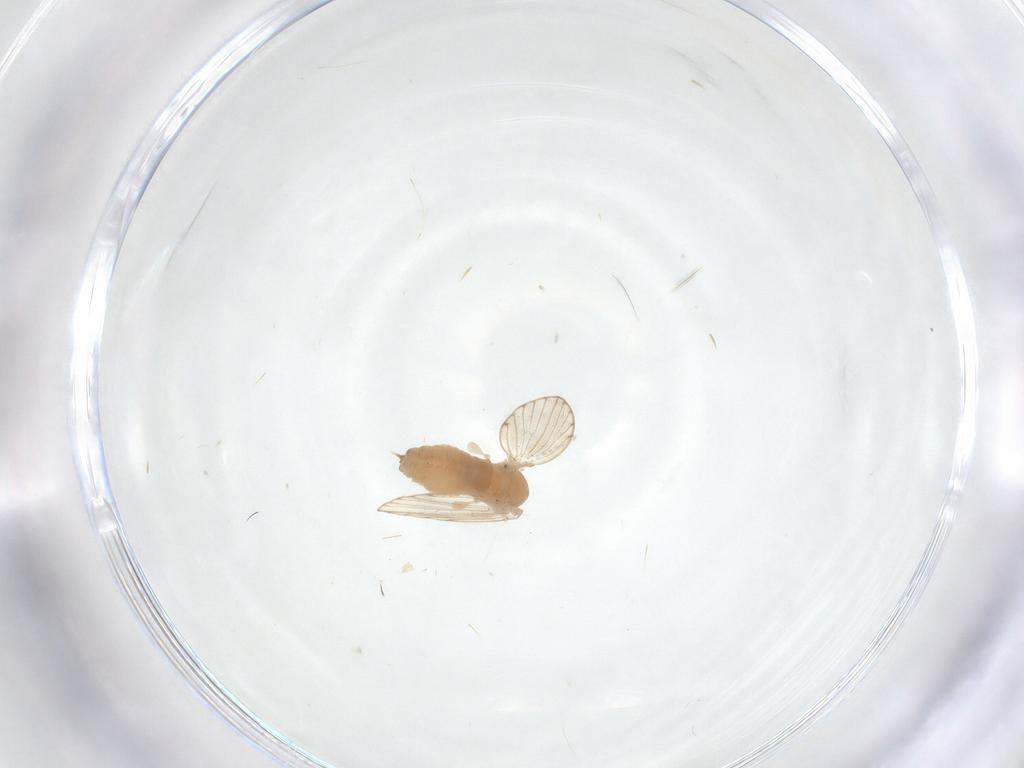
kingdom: Animalia
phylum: Arthropoda
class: Insecta
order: Diptera
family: Psychodidae
